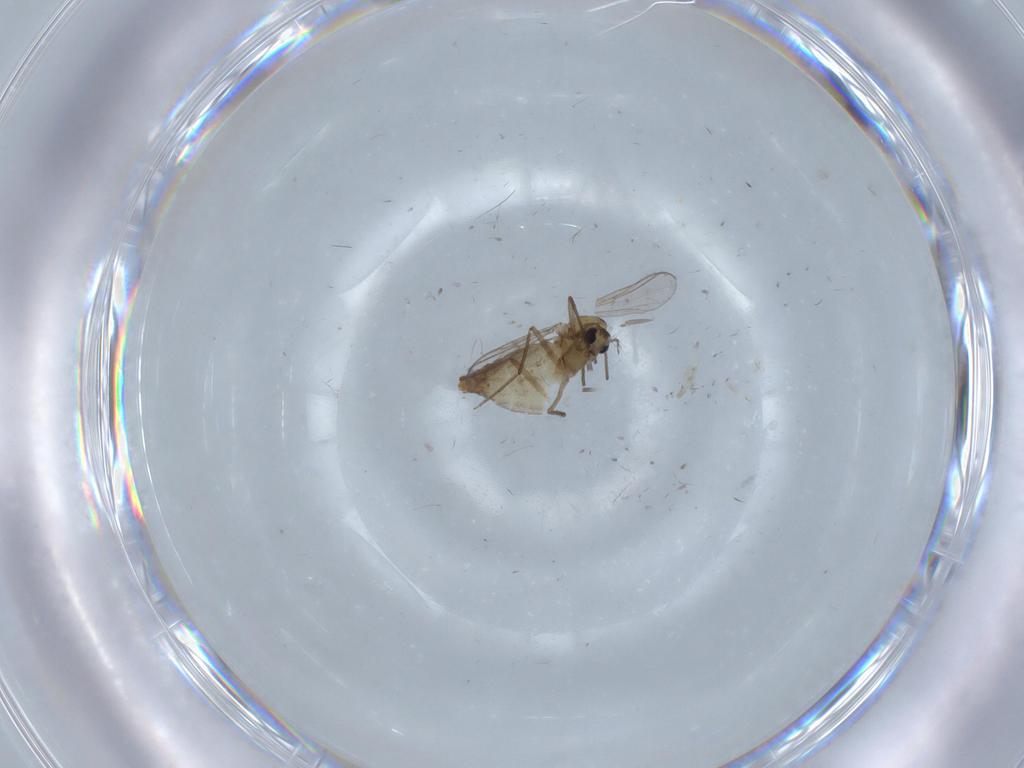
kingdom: Animalia
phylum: Arthropoda
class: Insecta
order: Diptera
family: Chironomidae
